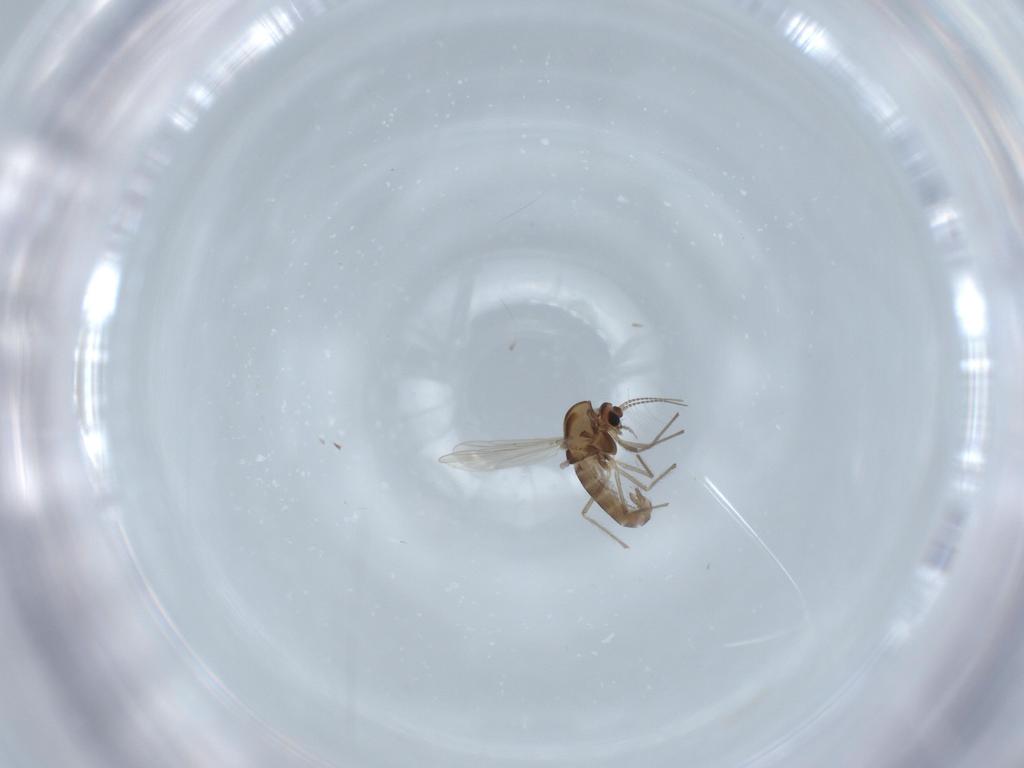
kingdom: Animalia
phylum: Arthropoda
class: Insecta
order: Diptera
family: Chironomidae
